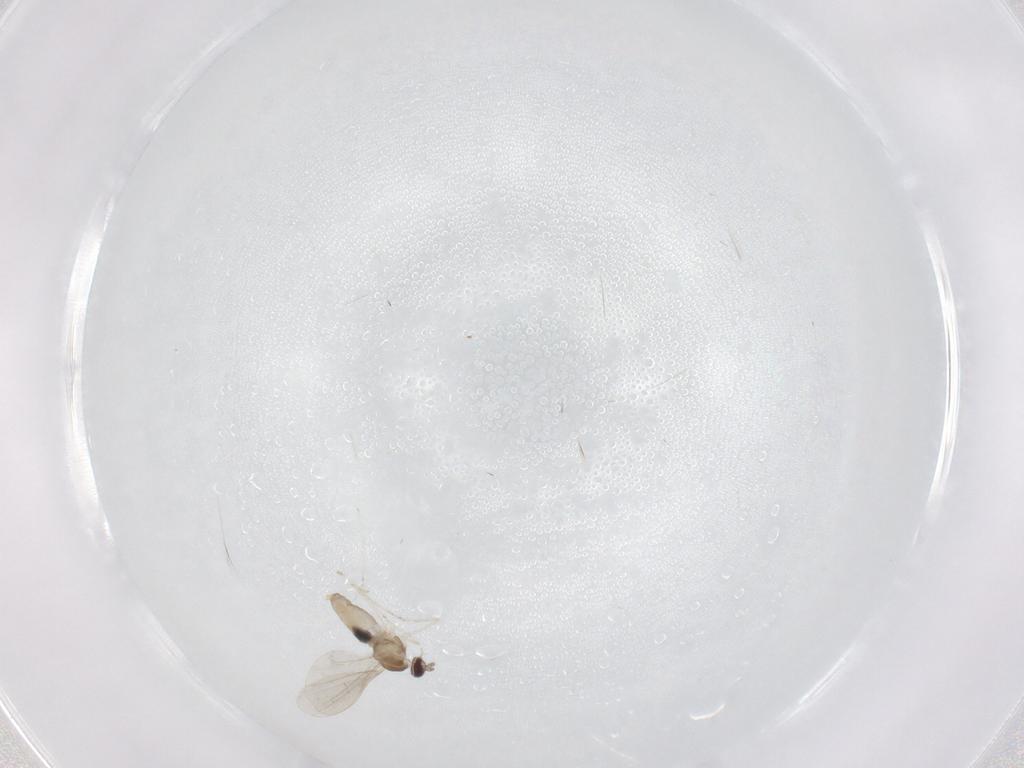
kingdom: Animalia
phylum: Arthropoda
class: Insecta
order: Diptera
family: Cecidomyiidae
